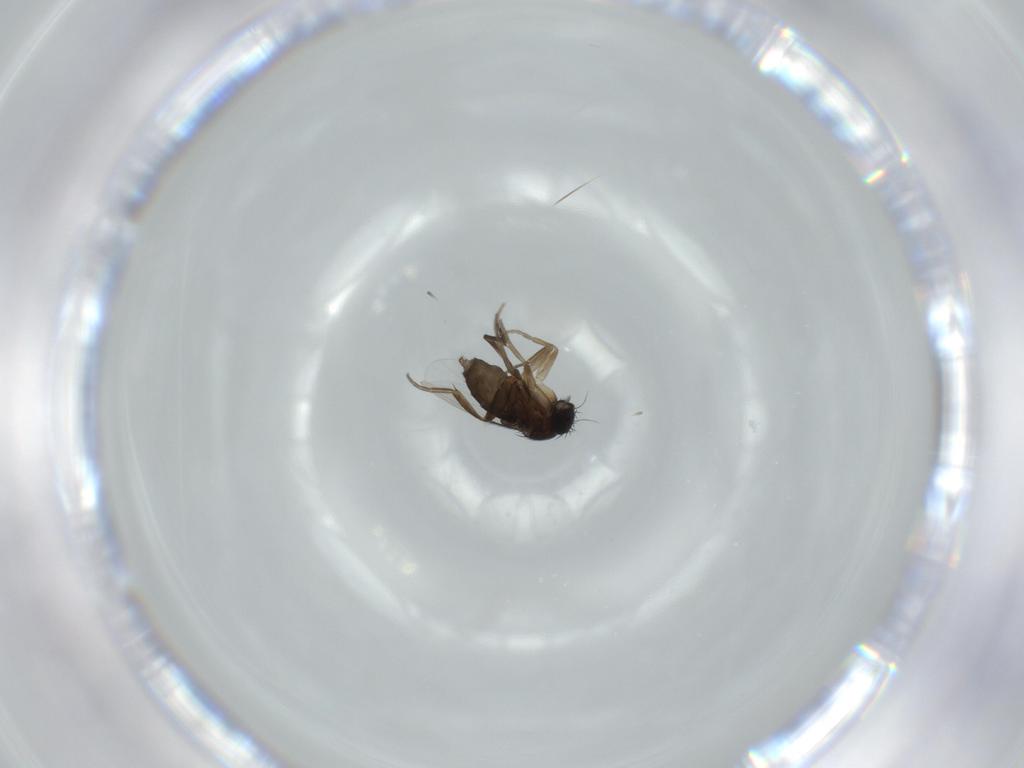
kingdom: Animalia
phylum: Arthropoda
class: Insecta
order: Diptera
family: Phoridae
